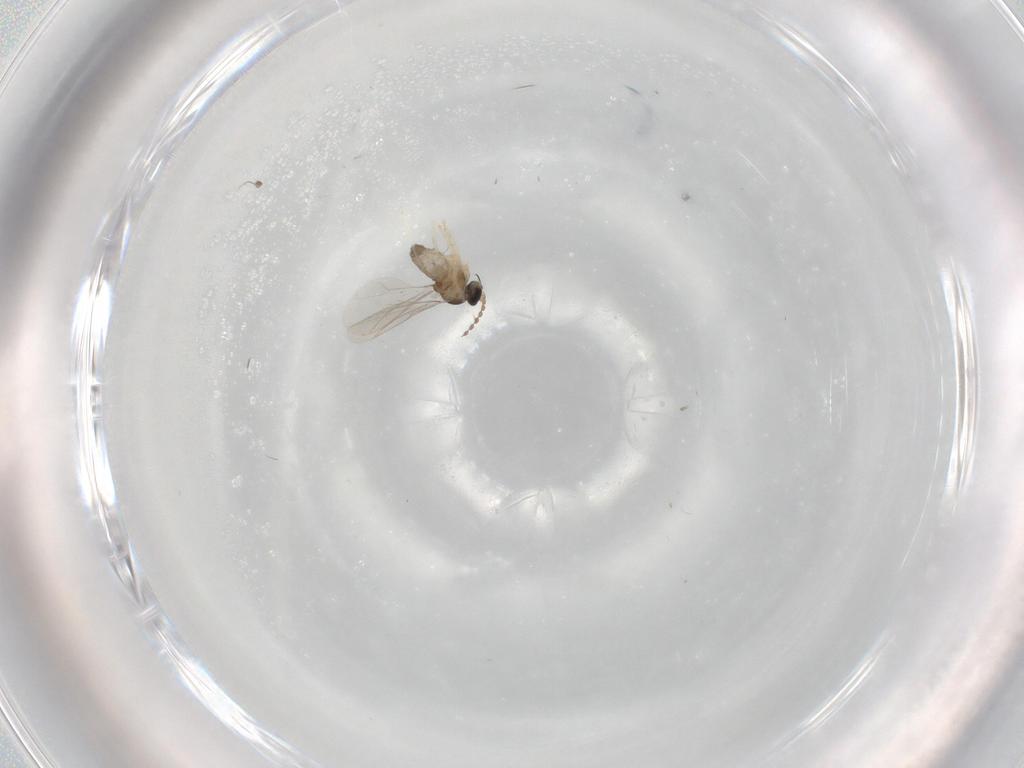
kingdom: Animalia
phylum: Arthropoda
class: Insecta
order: Diptera
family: Cecidomyiidae
